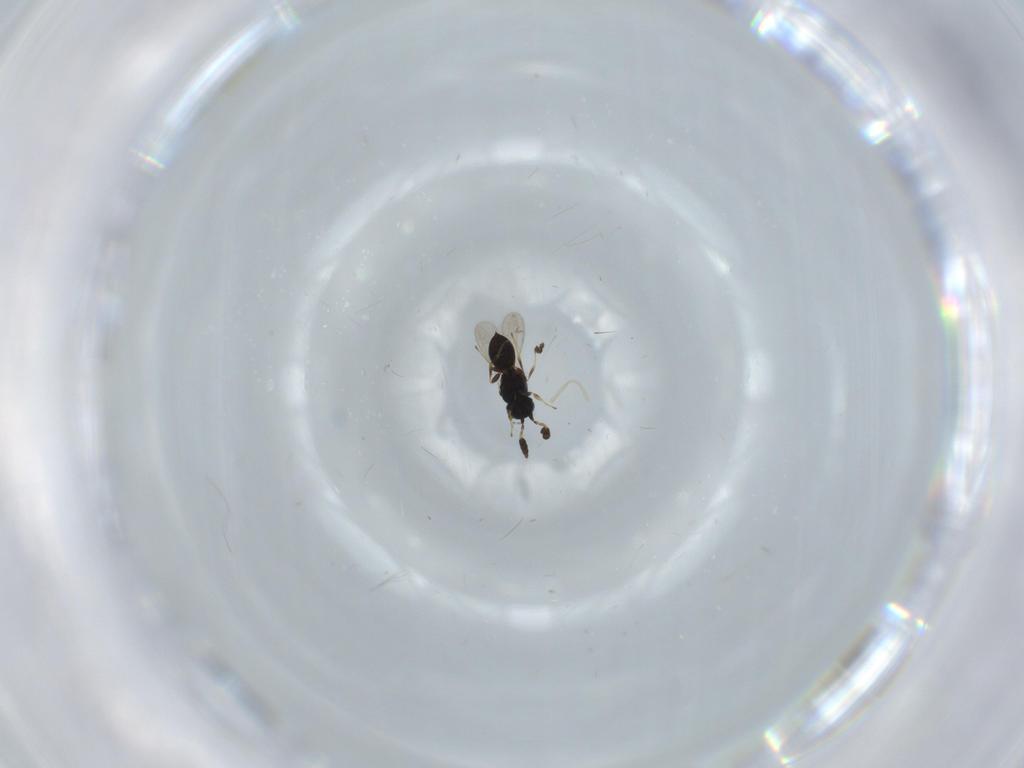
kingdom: Animalia
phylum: Arthropoda
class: Insecta
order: Hymenoptera
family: Scelionidae
